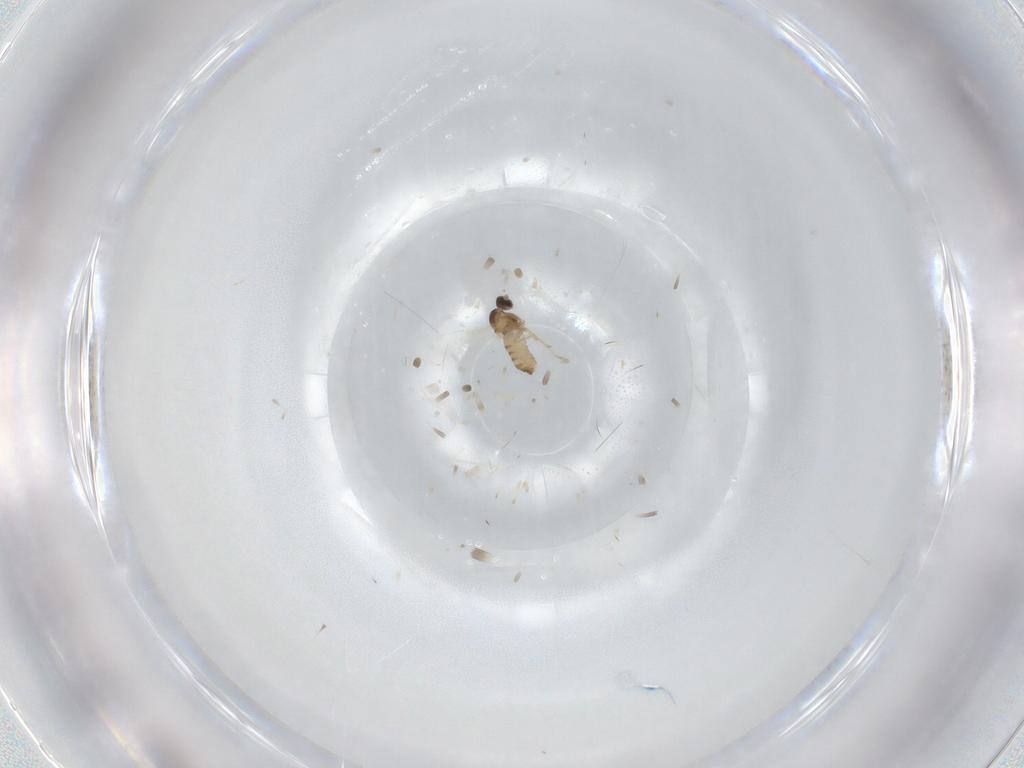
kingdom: Animalia
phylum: Arthropoda
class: Insecta
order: Diptera
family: Cecidomyiidae
